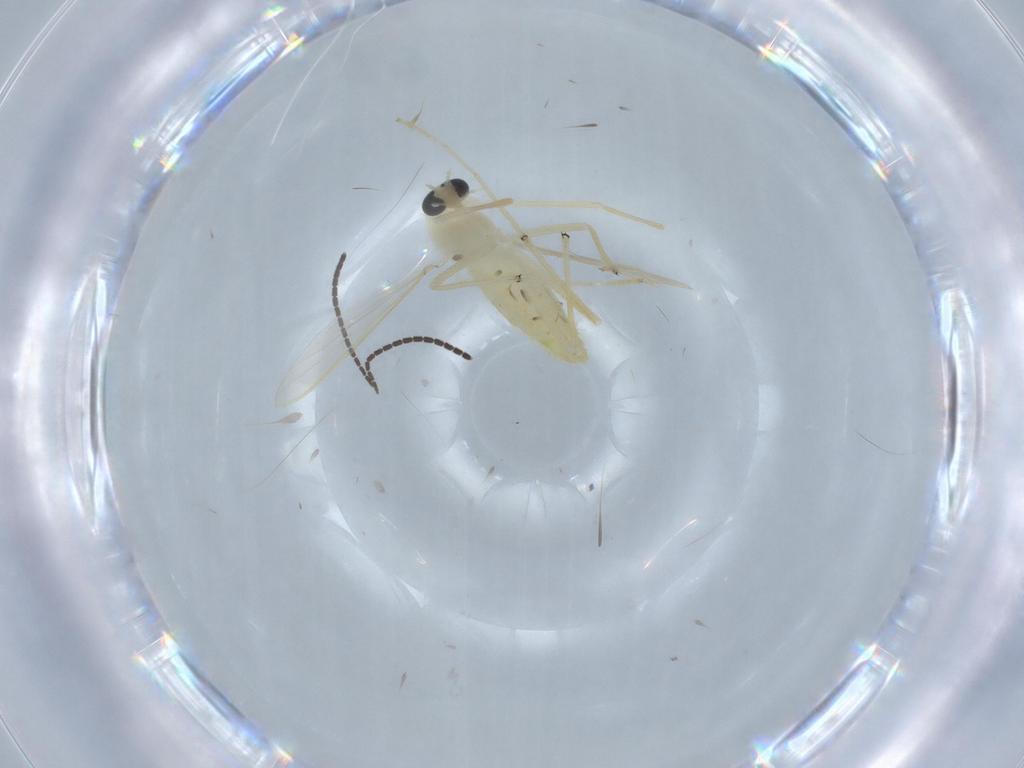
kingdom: Animalia
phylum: Arthropoda
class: Insecta
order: Diptera
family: Chironomidae
